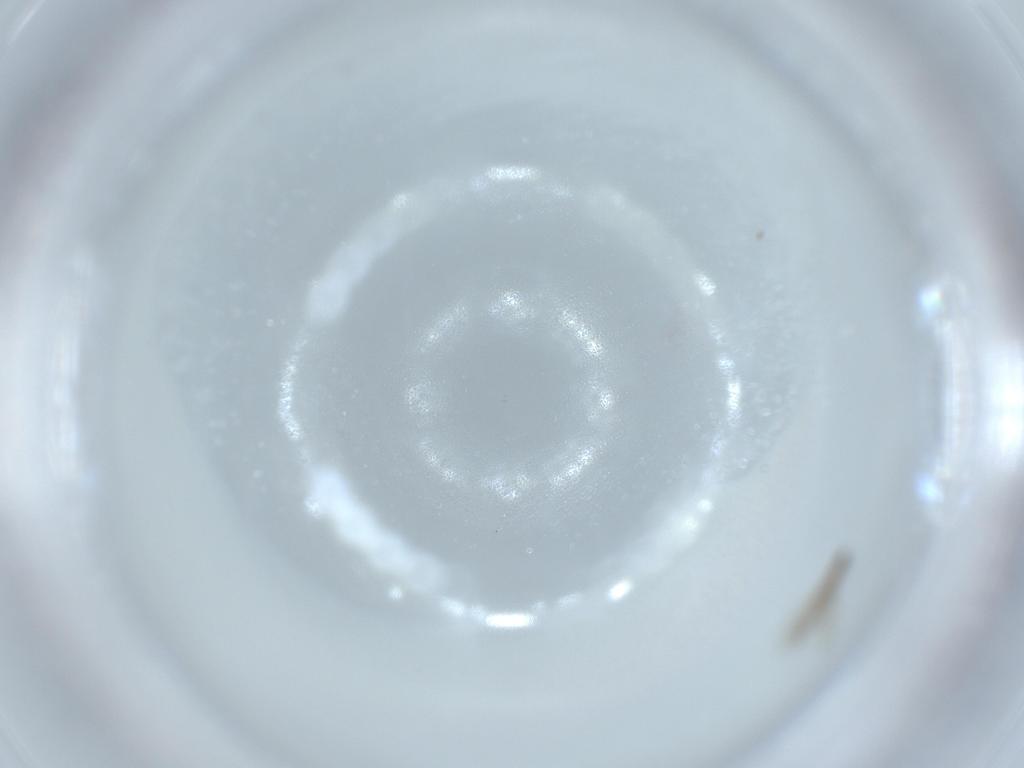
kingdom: Animalia
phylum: Arthropoda
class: Insecta
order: Diptera
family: Cecidomyiidae
